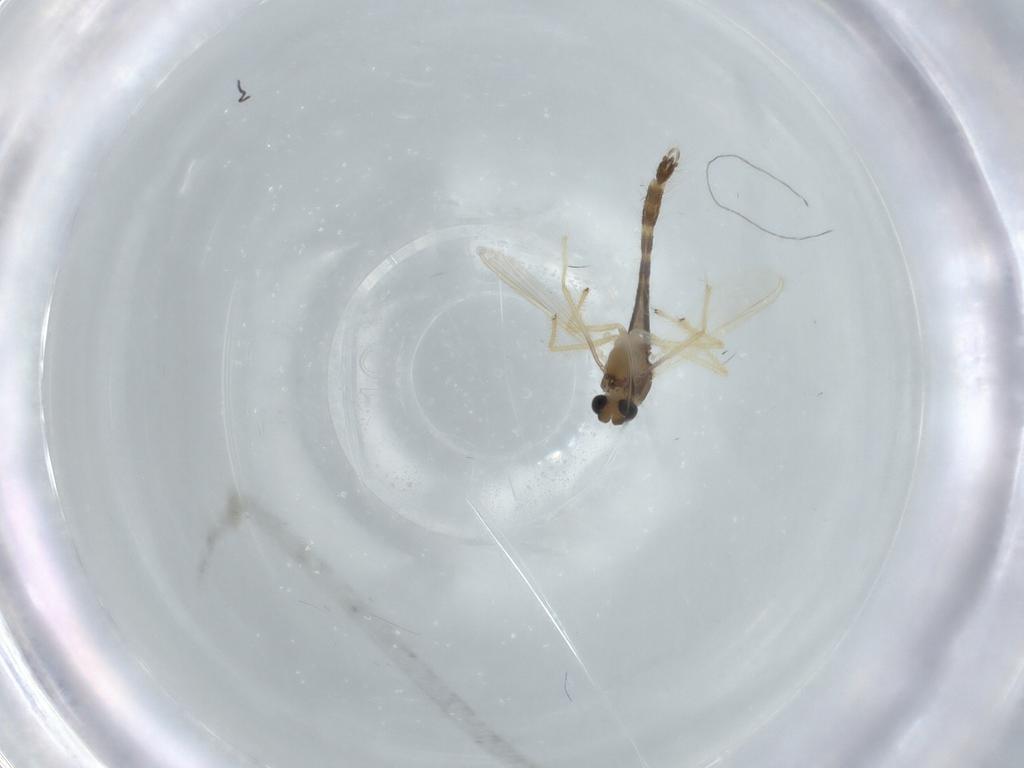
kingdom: Animalia
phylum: Arthropoda
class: Insecta
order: Diptera
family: Chironomidae
